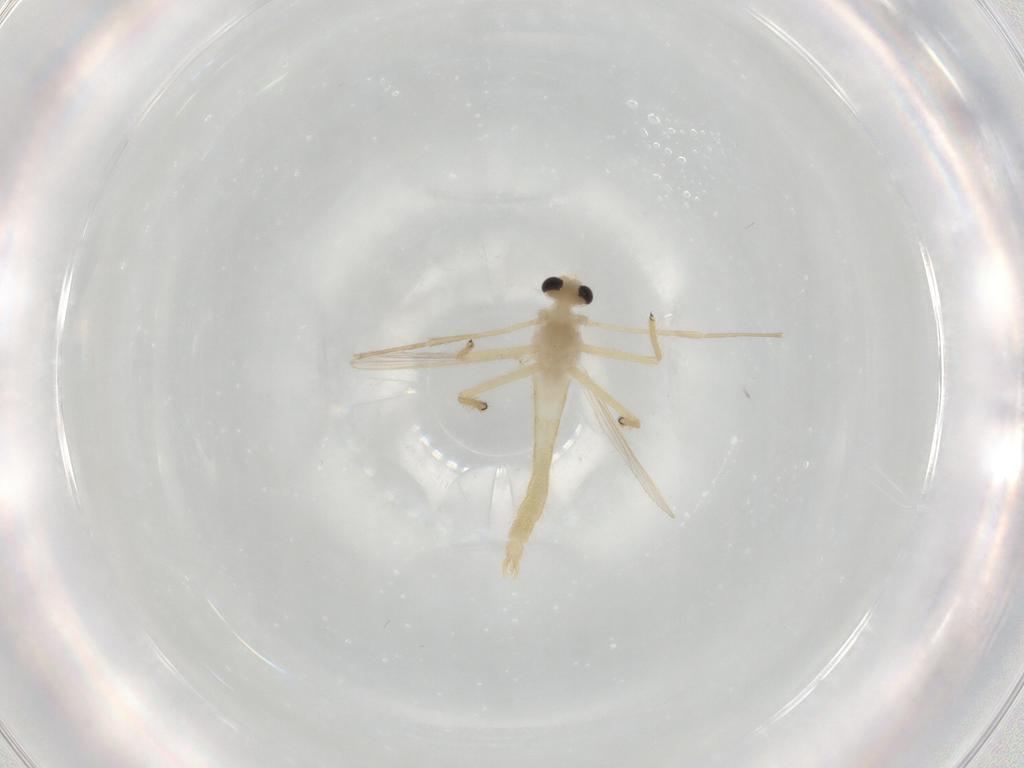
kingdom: Animalia
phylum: Arthropoda
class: Insecta
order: Diptera
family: Chironomidae
